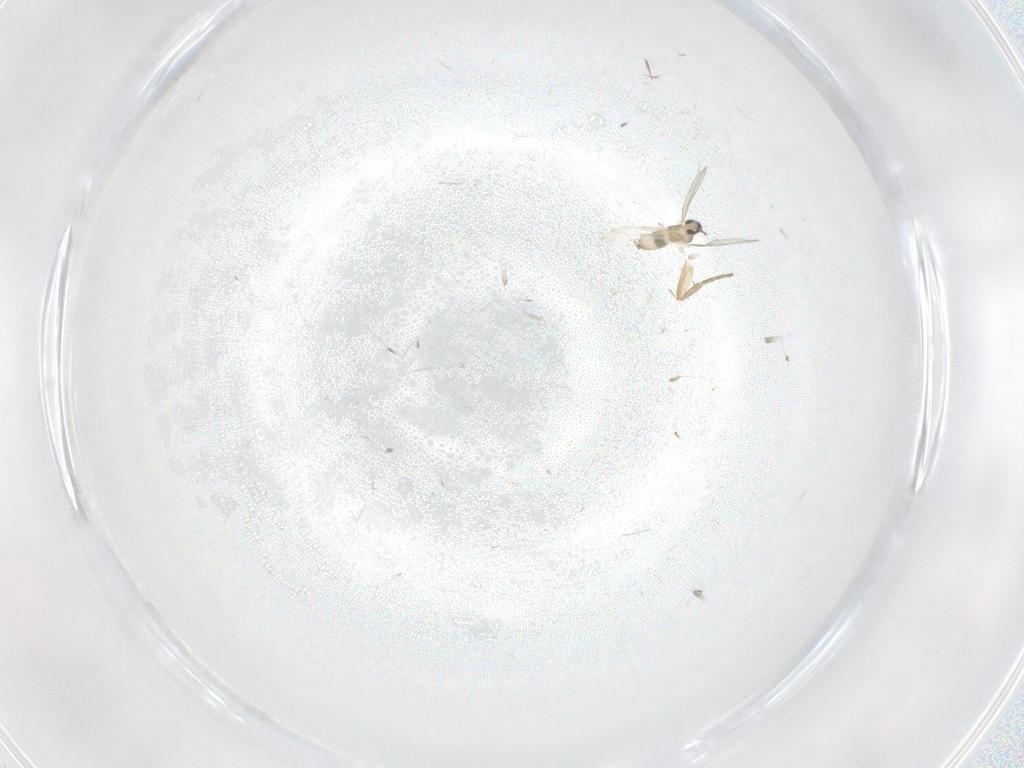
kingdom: Animalia
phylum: Arthropoda
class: Insecta
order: Diptera
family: Cecidomyiidae
